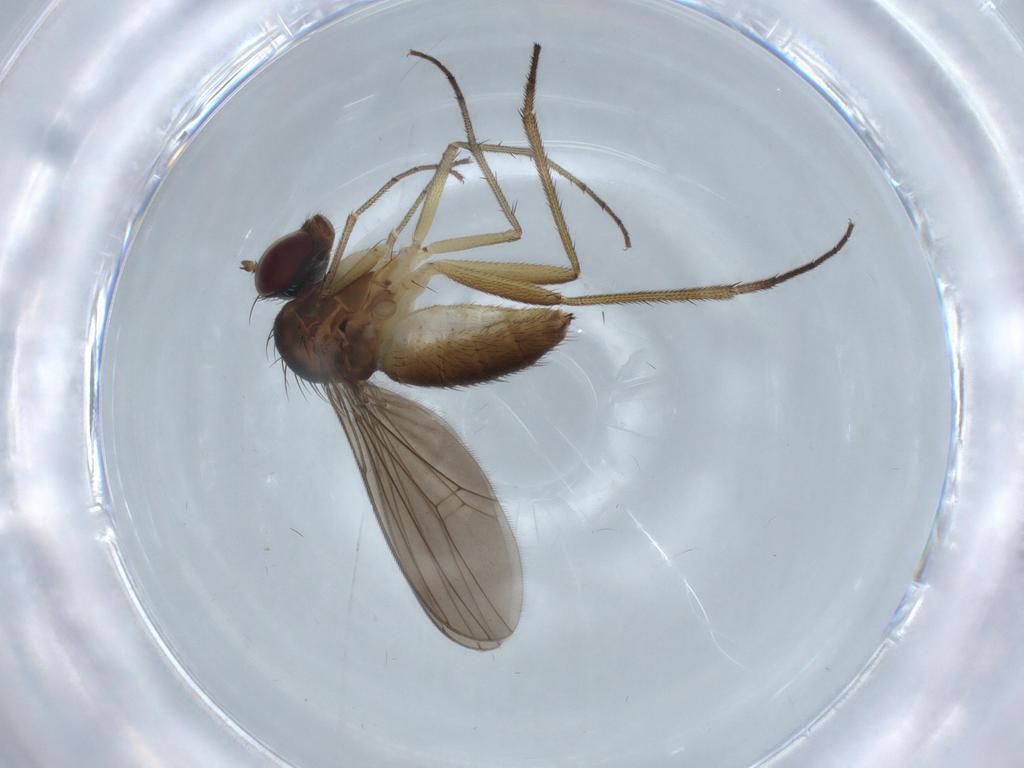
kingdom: Animalia
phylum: Arthropoda
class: Insecta
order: Diptera
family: Dolichopodidae
